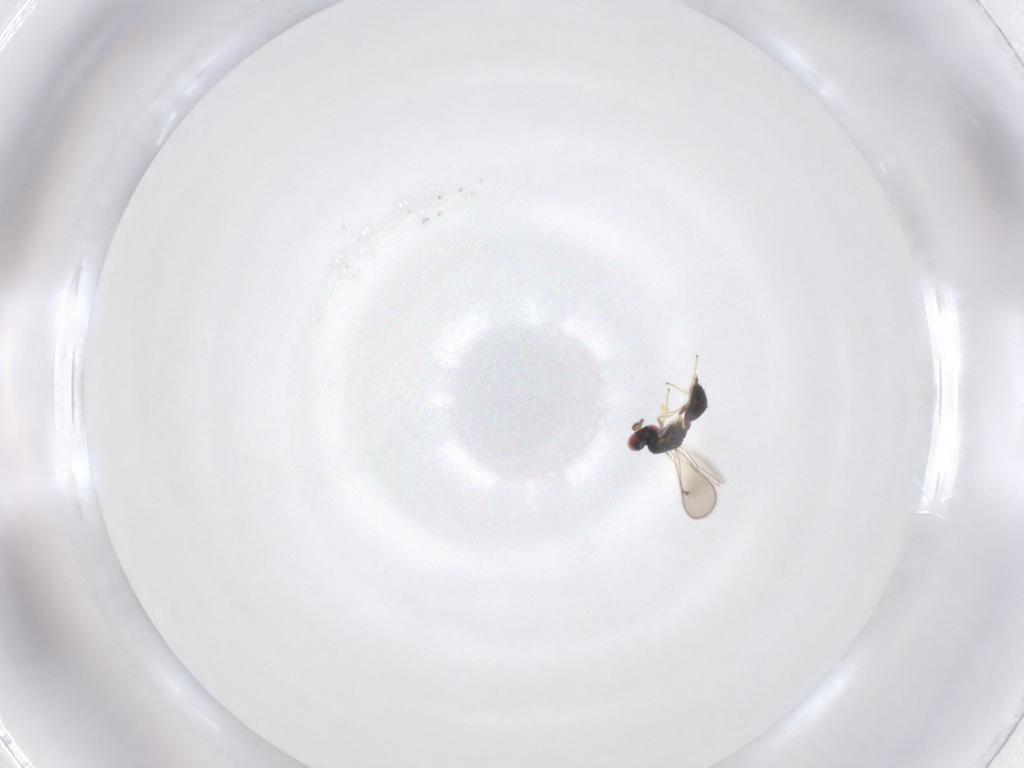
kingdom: Animalia
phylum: Arthropoda
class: Insecta
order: Hymenoptera
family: Eulophidae
